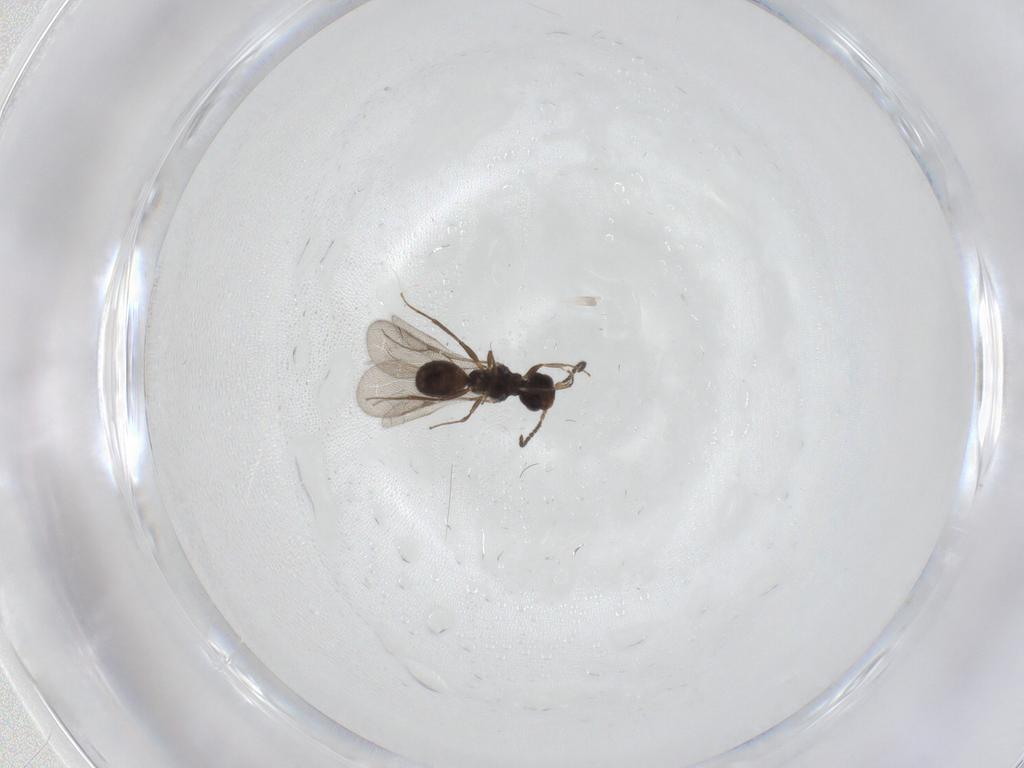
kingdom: Animalia
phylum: Arthropoda
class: Insecta
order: Hymenoptera
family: Bethylidae
